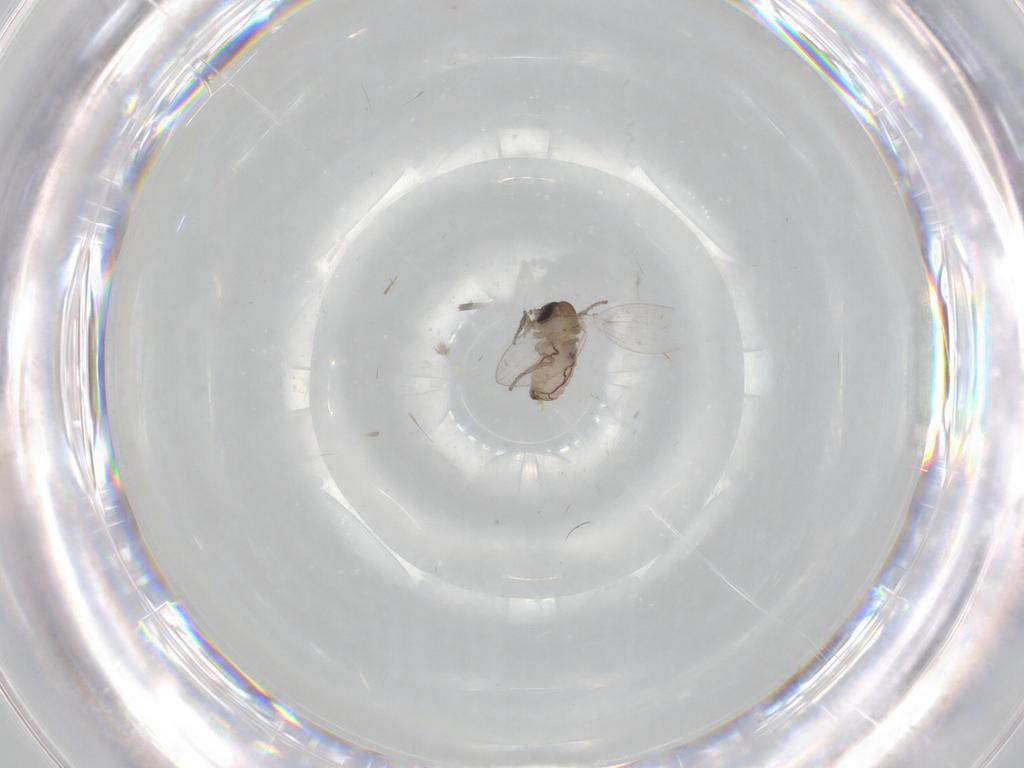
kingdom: Animalia
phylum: Arthropoda
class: Insecta
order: Diptera
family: Psychodidae
